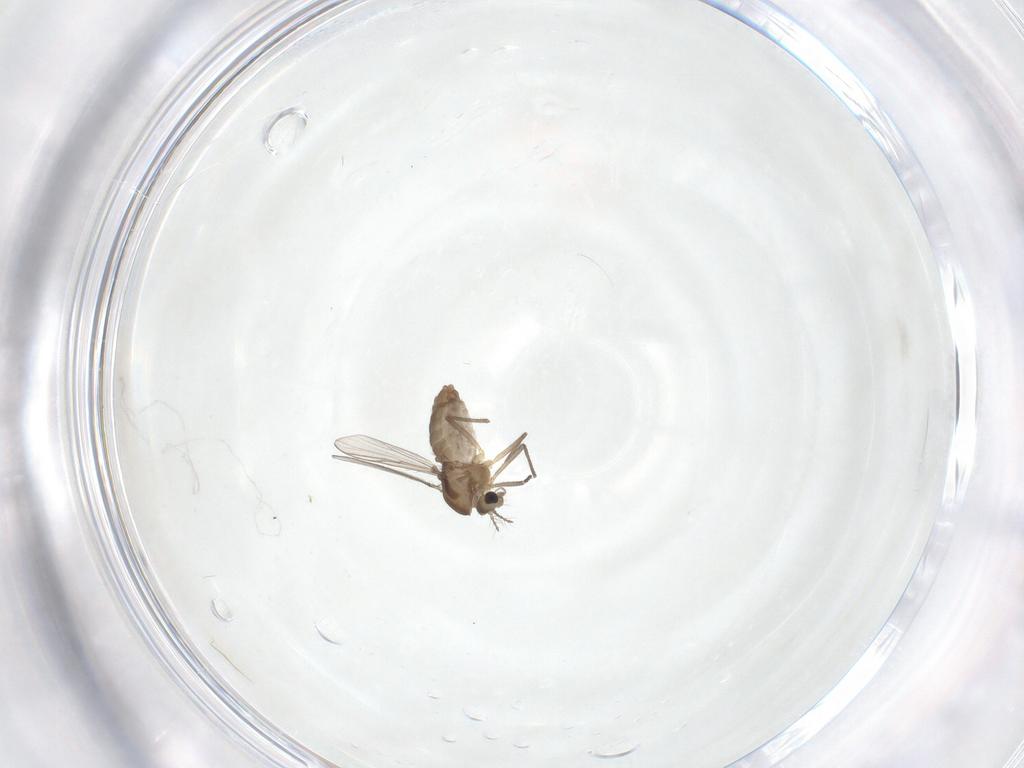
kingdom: Animalia
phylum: Arthropoda
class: Insecta
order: Diptera
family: Chironomidae
